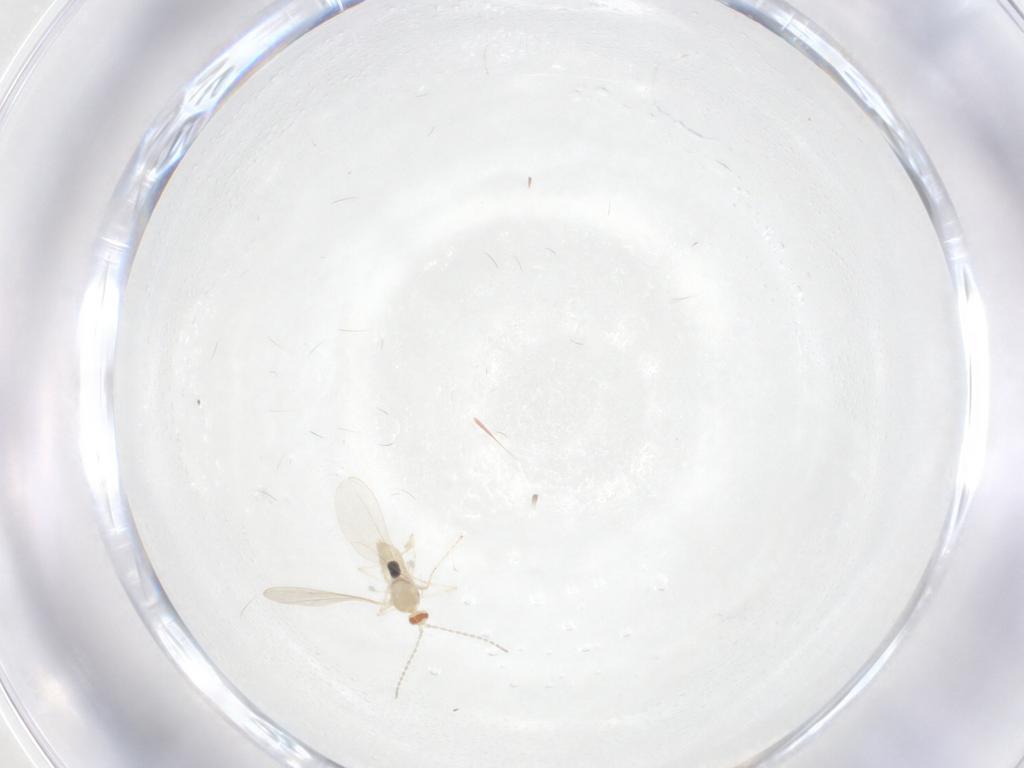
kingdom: Animalia
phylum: Arthropoda
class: Insecta
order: Diptera
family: Cecidomyiidae
